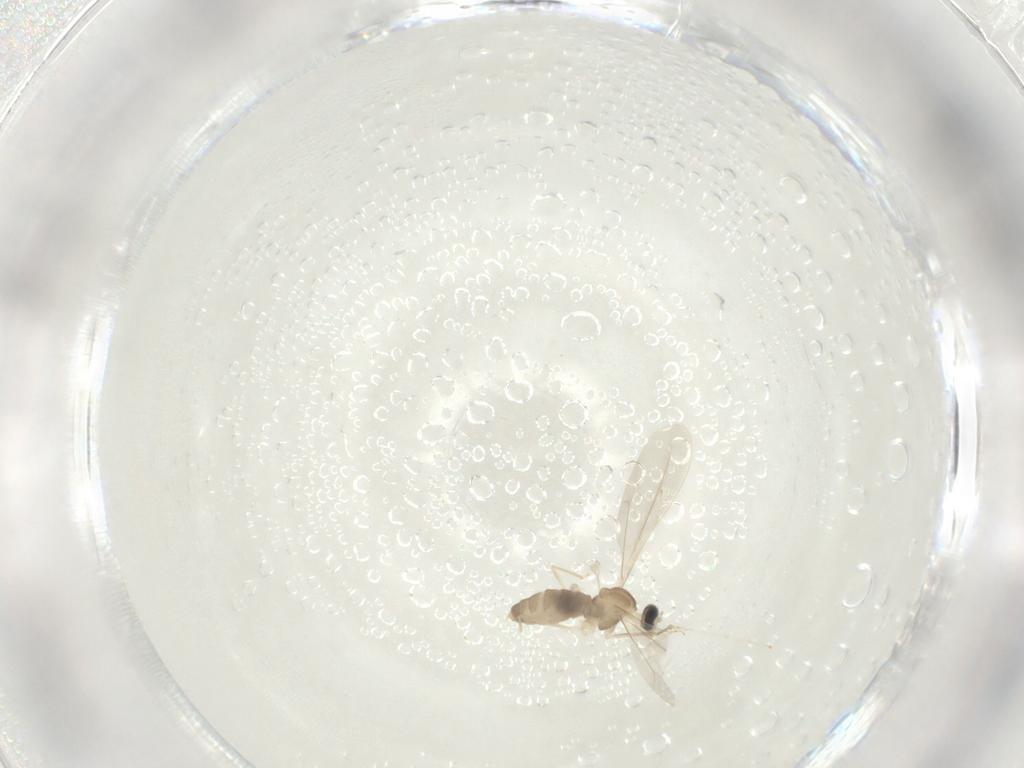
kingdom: Animalia
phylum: Arthropoda
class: Insecta
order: Diptera
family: Cecidomyiidae
